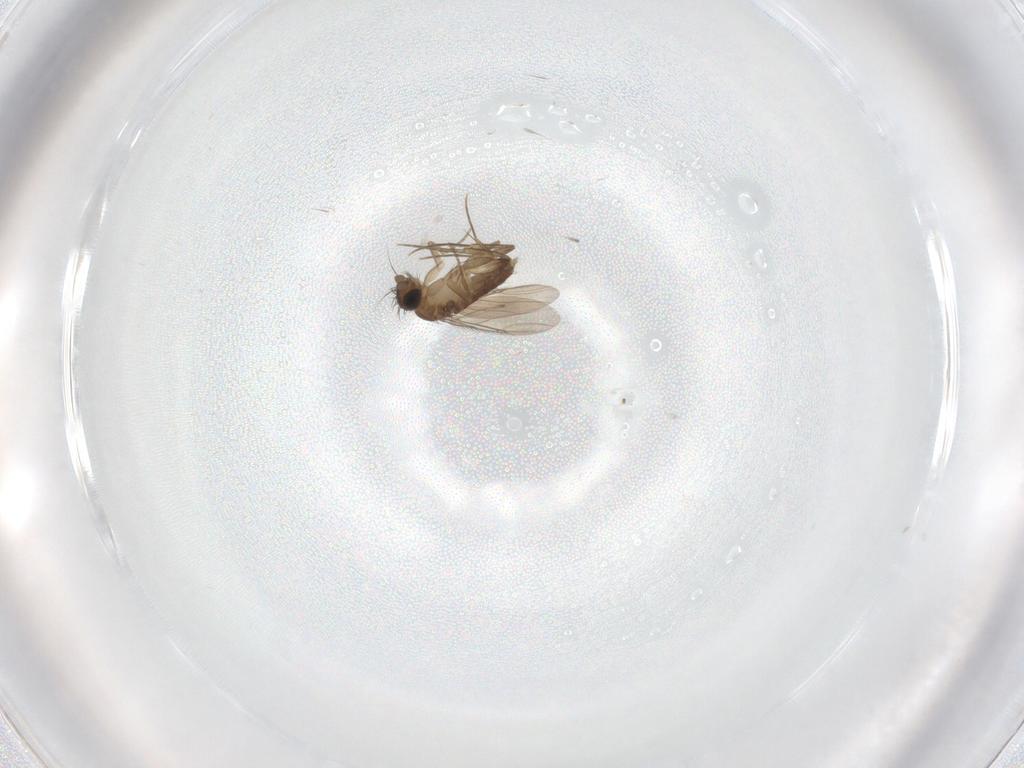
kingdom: Animalia
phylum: Arthropoda
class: Insecta
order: Diptera
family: Phoridae
